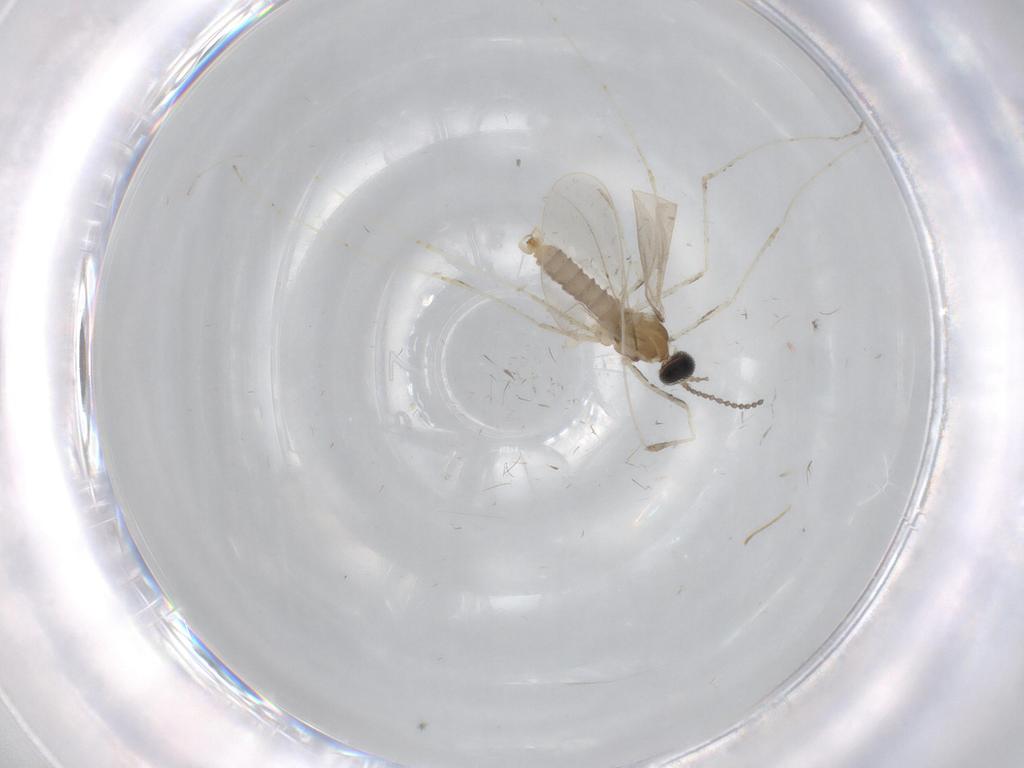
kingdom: Animalia
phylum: Arthropoda
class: Insecta
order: Diptera
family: Cecidomyiidae
